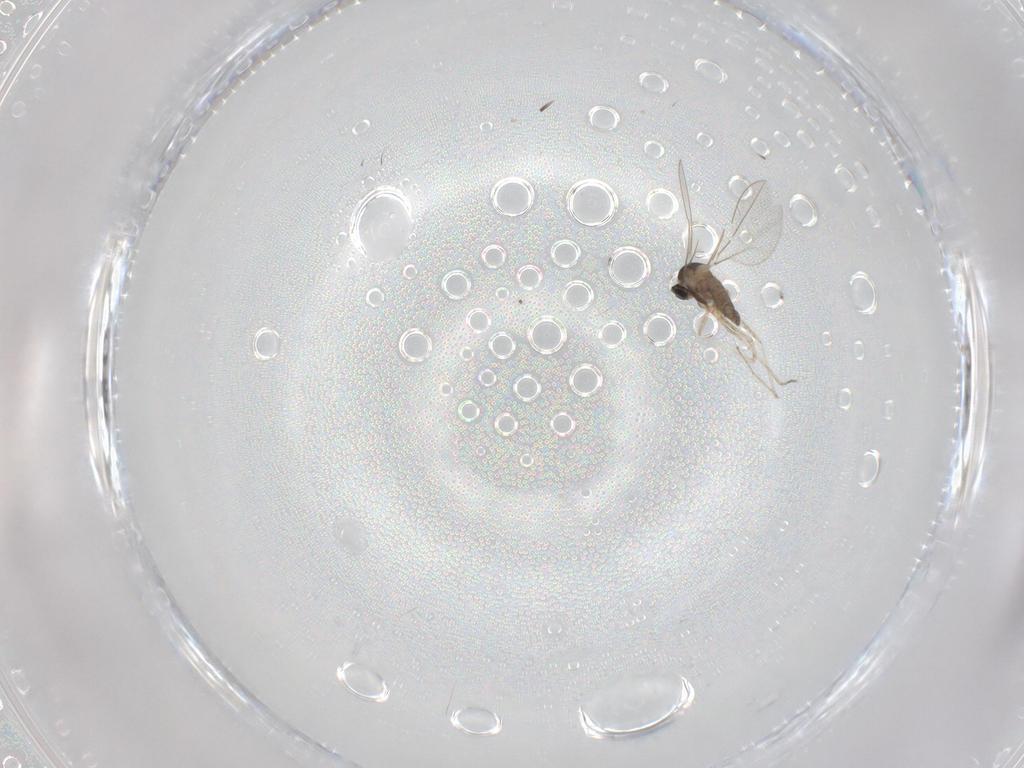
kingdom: Animalia
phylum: Arthropoda
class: Insecta
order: Diptera
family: Cecidomyiidae
